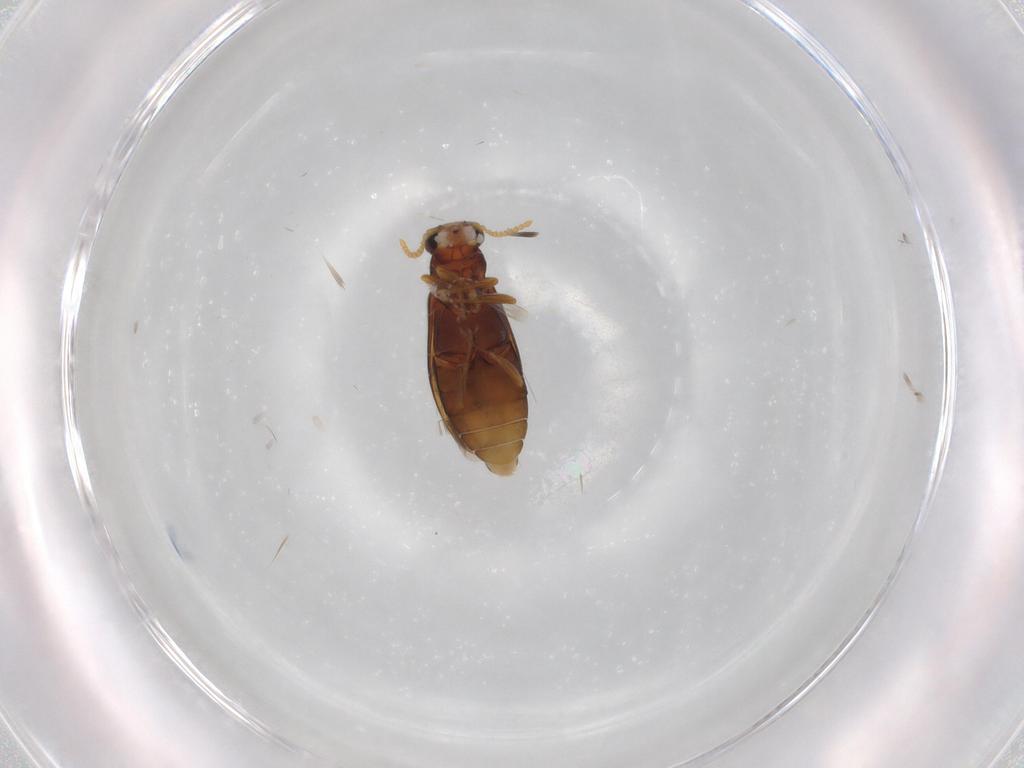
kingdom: Animalia
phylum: Arthropoda
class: Insecta
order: Coleoptera
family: Mycteridae
